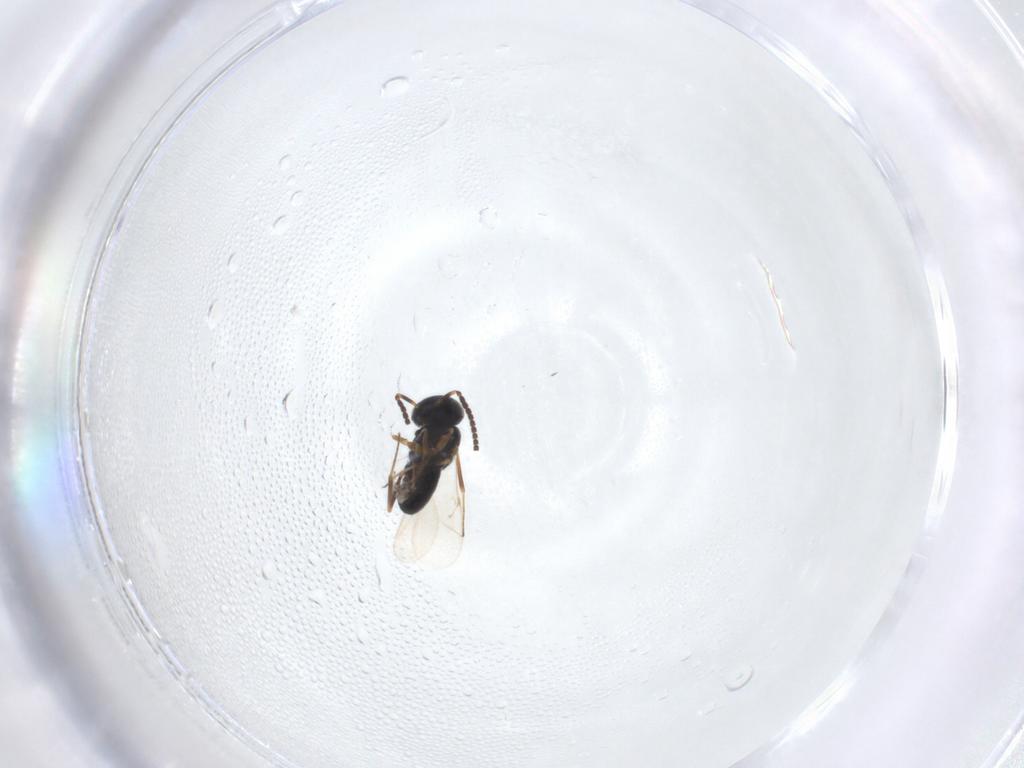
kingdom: Animalia
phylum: Arthropoda
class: Insecta
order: Hymenoptera
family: Crabronidae
